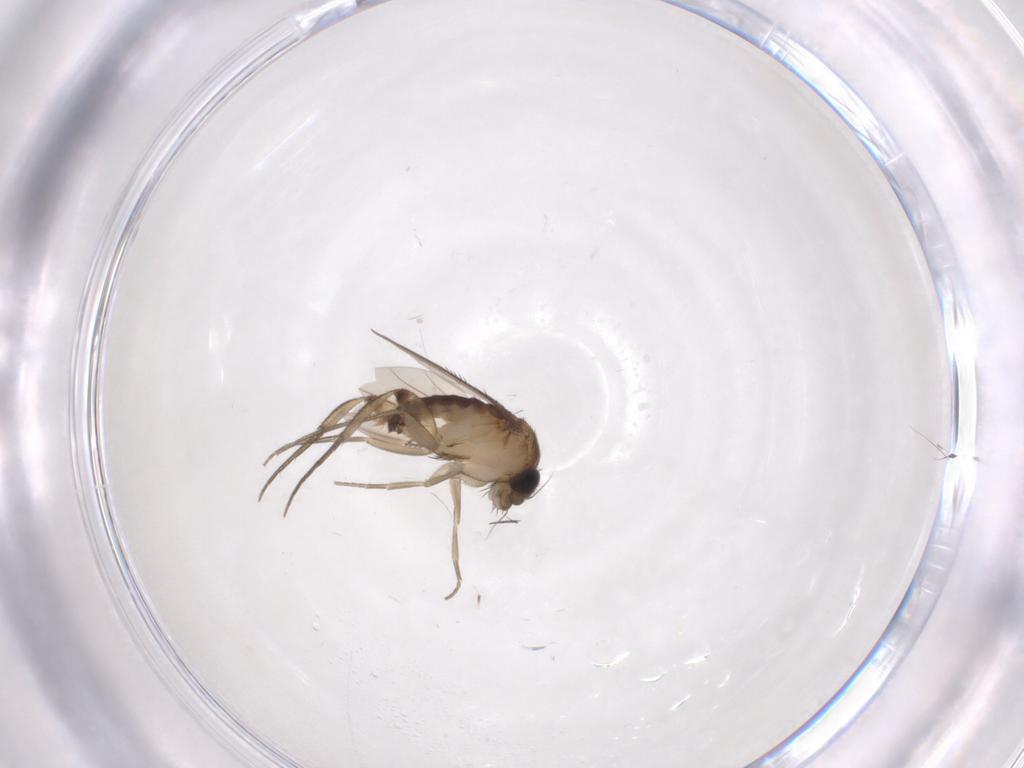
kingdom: Animalia
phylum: Arthropoda
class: Insecta
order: Diptera
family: Phoridae
